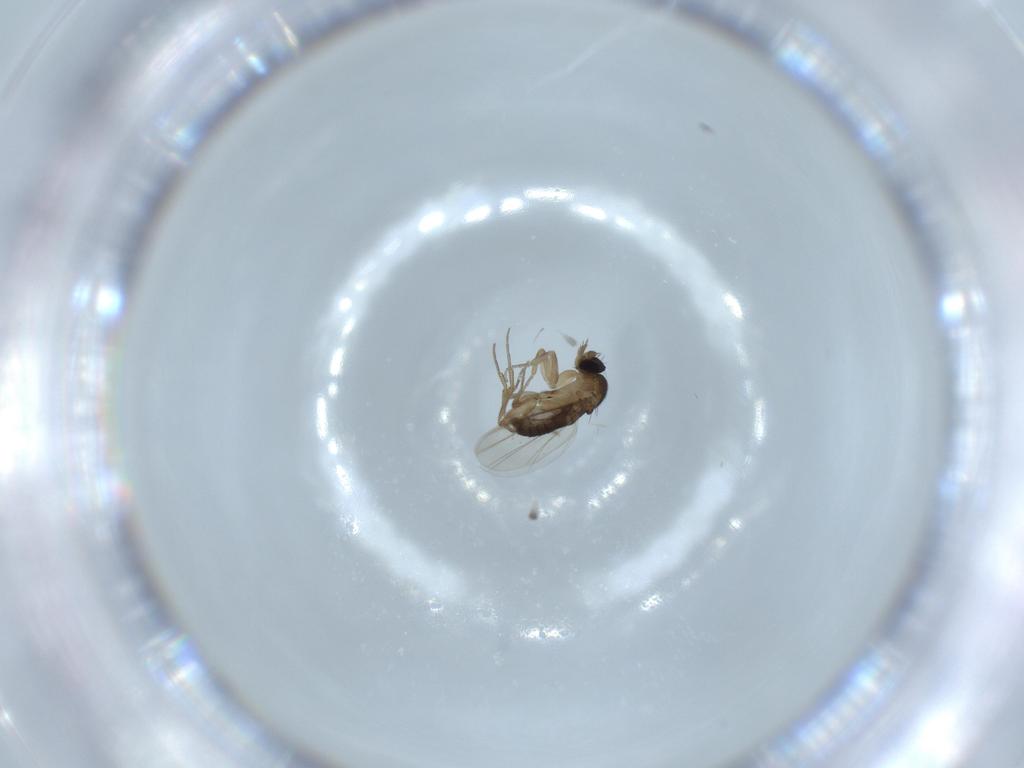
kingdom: Animalia
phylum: Arthropoda
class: Insecta
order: Diptera
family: Phoridae
